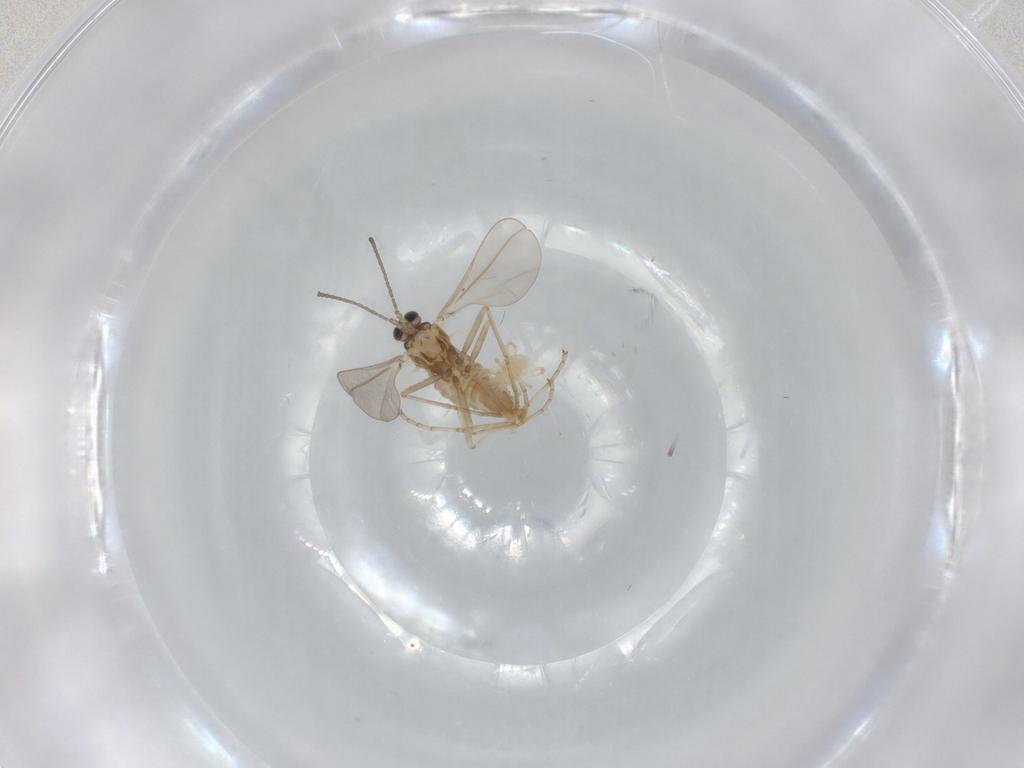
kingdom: Animalia
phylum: Arthropoda
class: Insecta
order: Diptera
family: Cecidomyiidae
